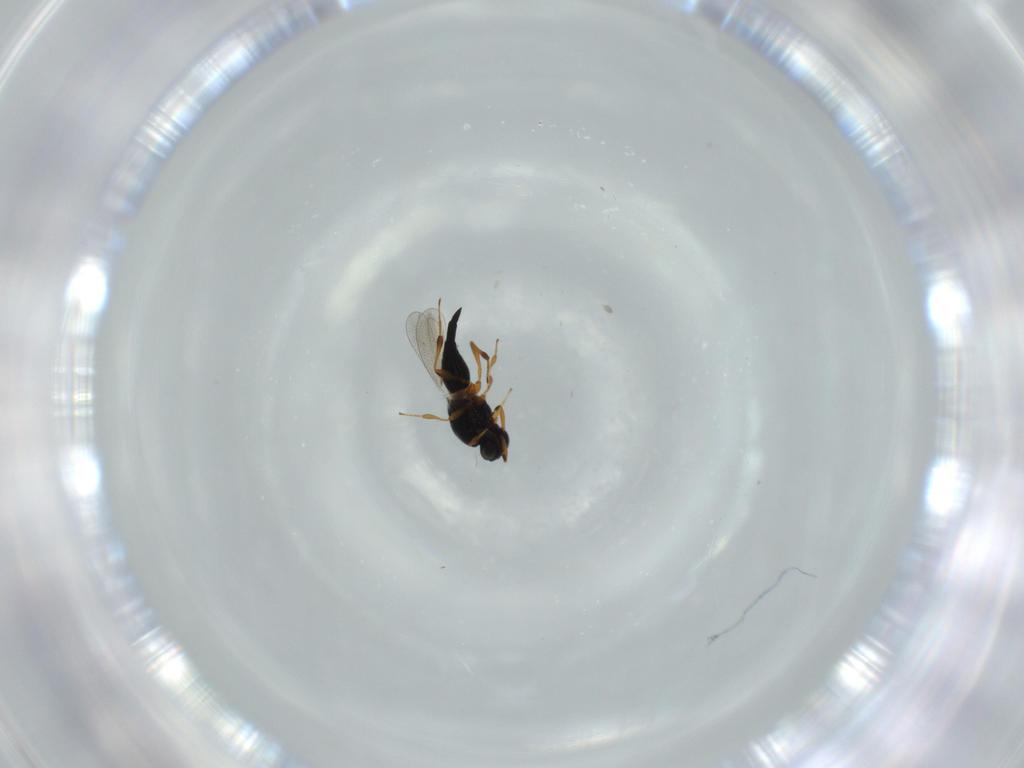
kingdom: Animalia
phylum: Arthropoda
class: Insecta
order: Hymenoptera
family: Platygastridae
